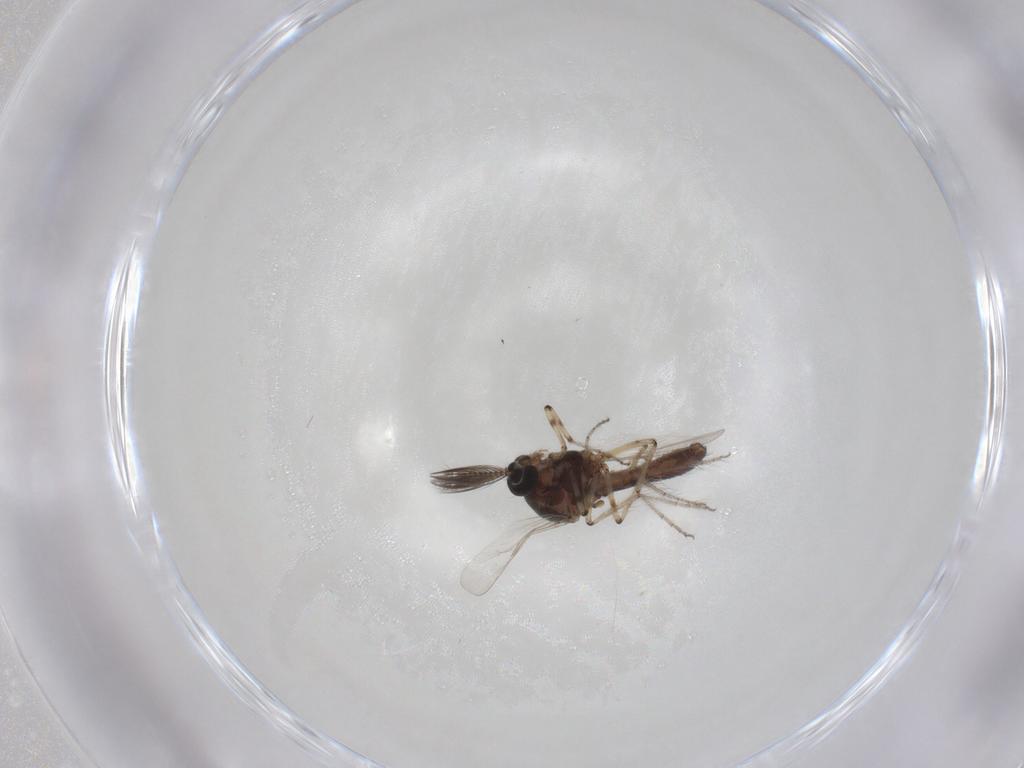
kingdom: Animalia
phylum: Arthropoda
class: Insecta
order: Diptera
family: Ceratopogonidae
